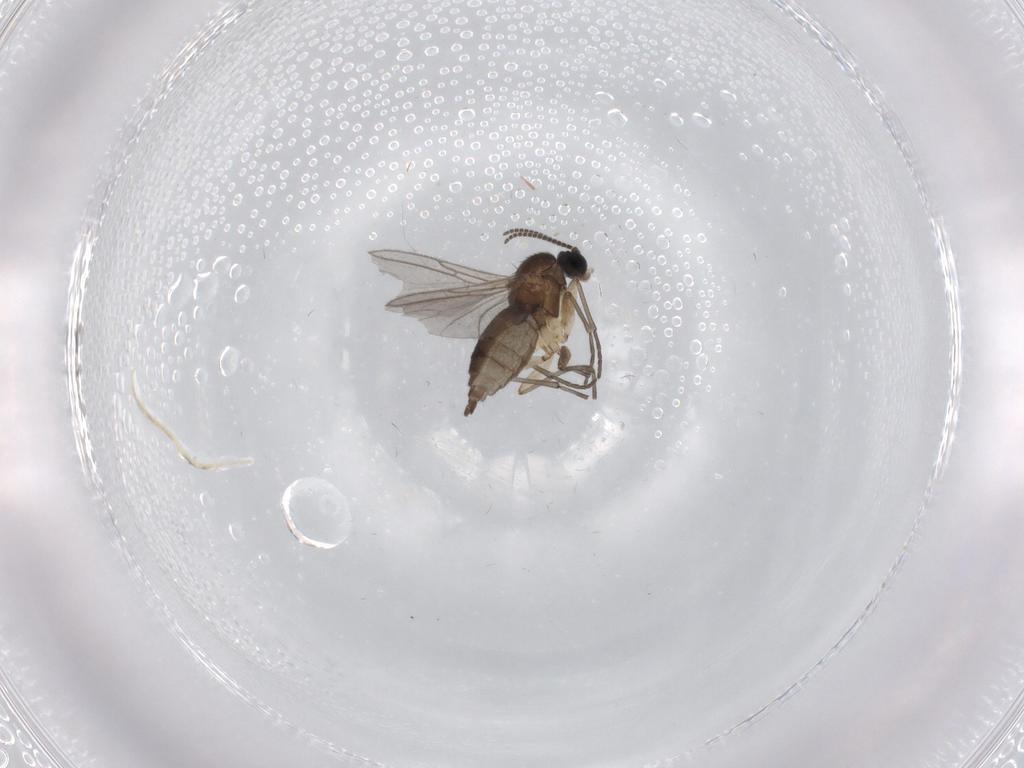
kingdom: Animalia
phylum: Arthropoda
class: Insecta
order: Diptera
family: Sciaridae
